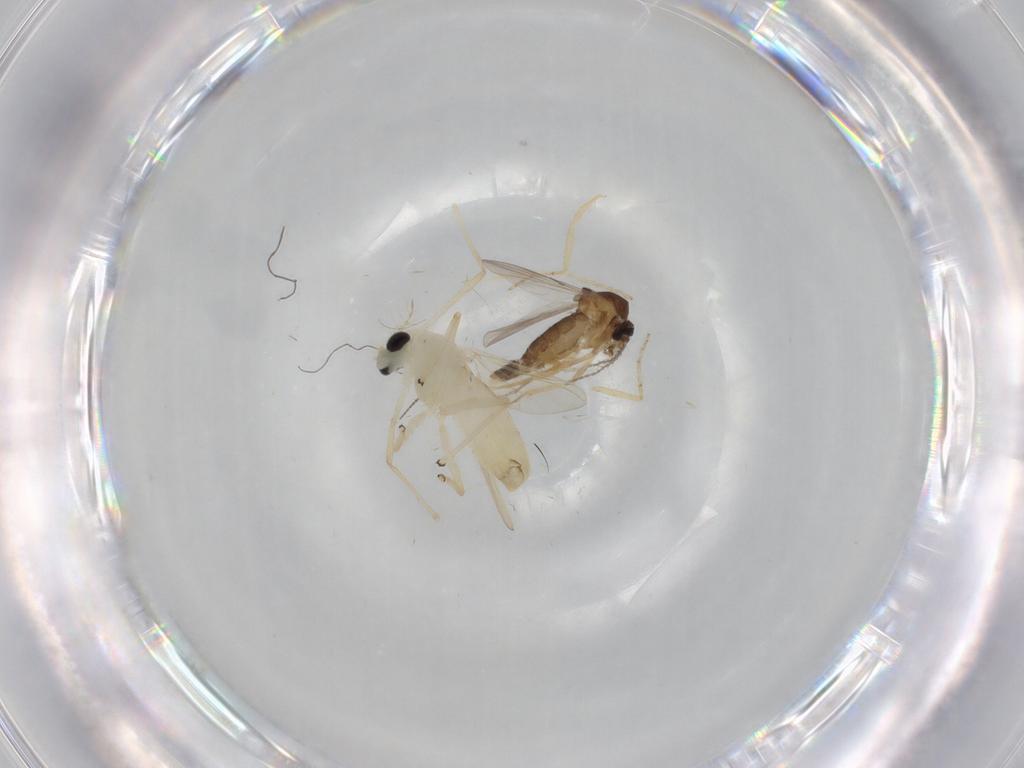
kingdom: Animalia
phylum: Arthropoda
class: Insecta
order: Diptera
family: Chironomidae
